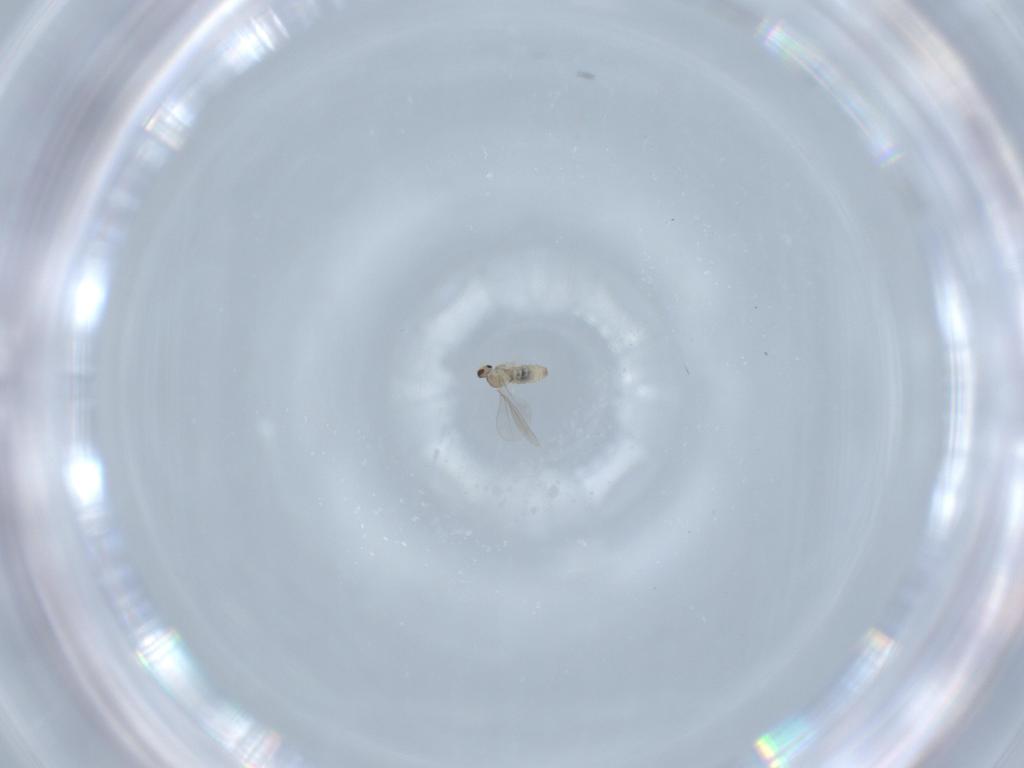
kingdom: Animalia
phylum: Arthropoda
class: Insecta
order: Diptera
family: Cecidomyiidae
